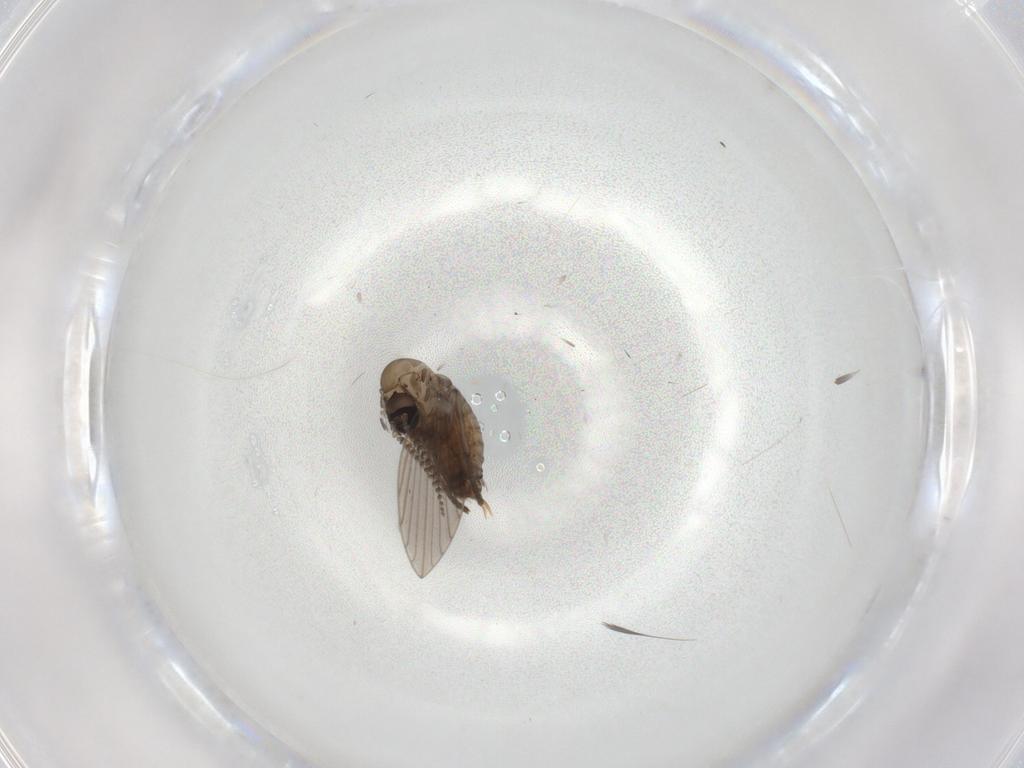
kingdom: Animalia
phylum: Arthropoda
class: Insecta
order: Diptera
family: Psychodidae
